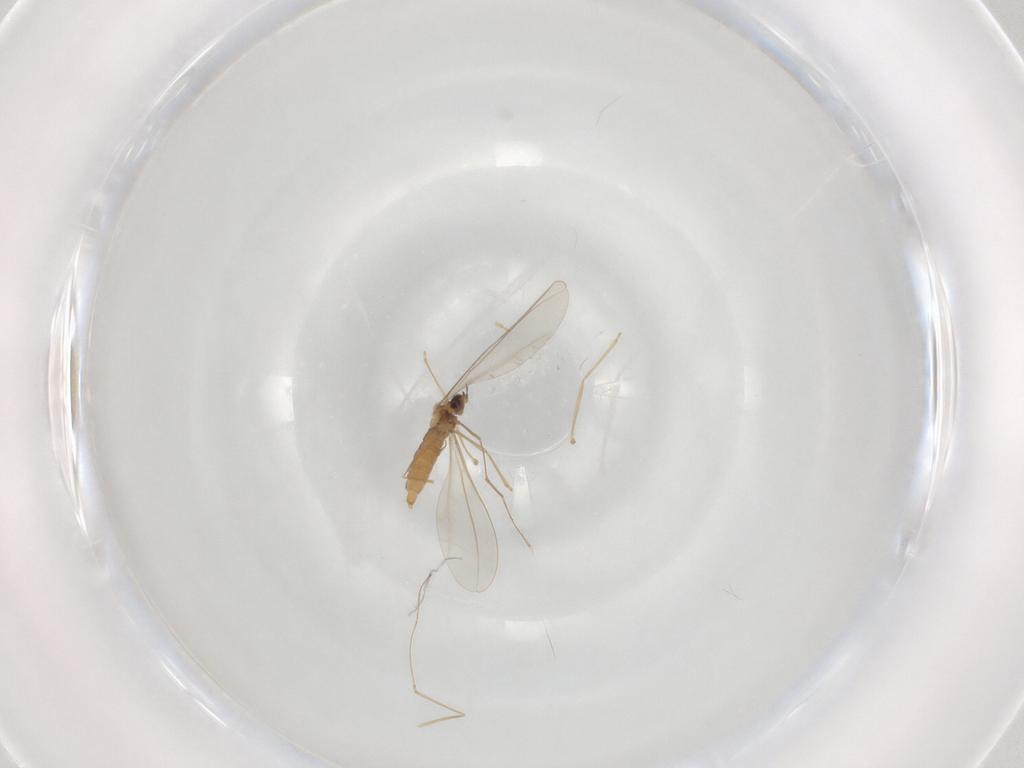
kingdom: Animalia
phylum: Arthropoda
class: Insecta
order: Diptera
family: Cecidomyiidae
